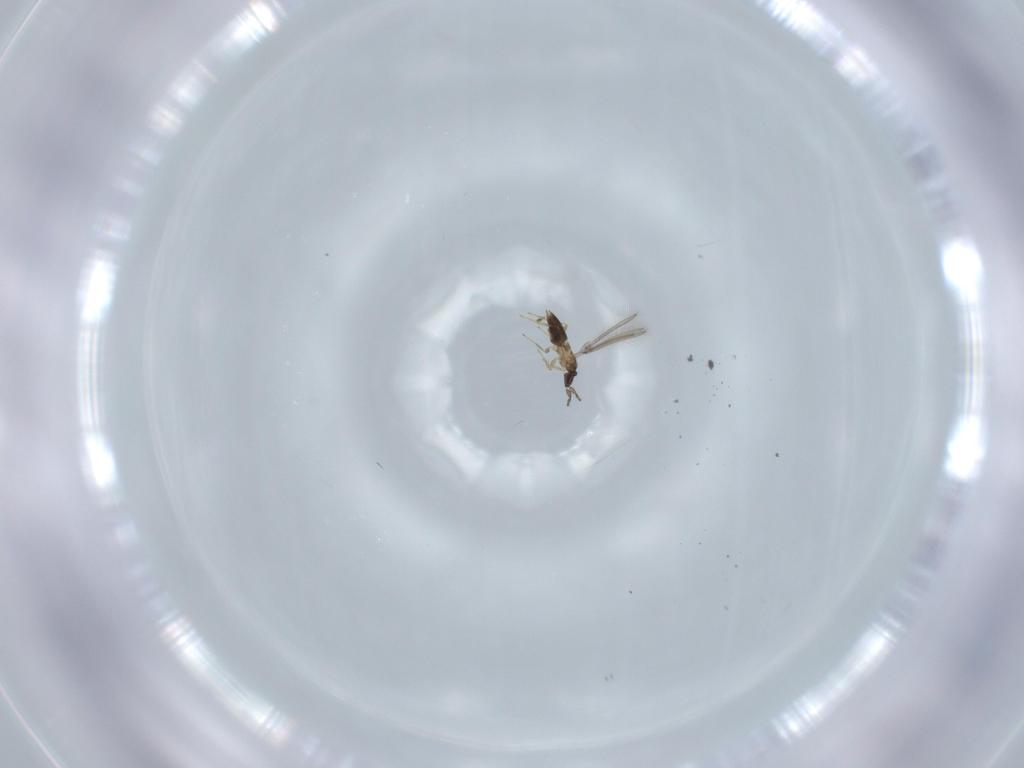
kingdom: Animalia
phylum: Arthropoda
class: Insecta
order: Hymenoptera
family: Mymaridae
